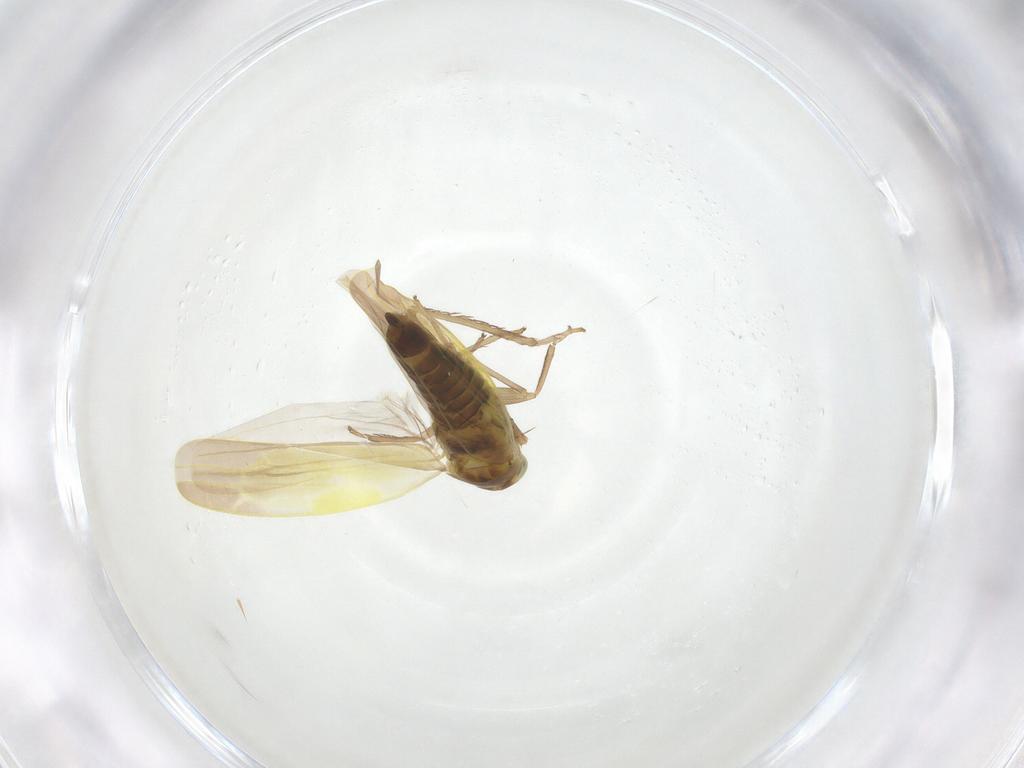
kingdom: Animalia
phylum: Arthropoda
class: Insecta
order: Hemiptera
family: Cicadellidae
